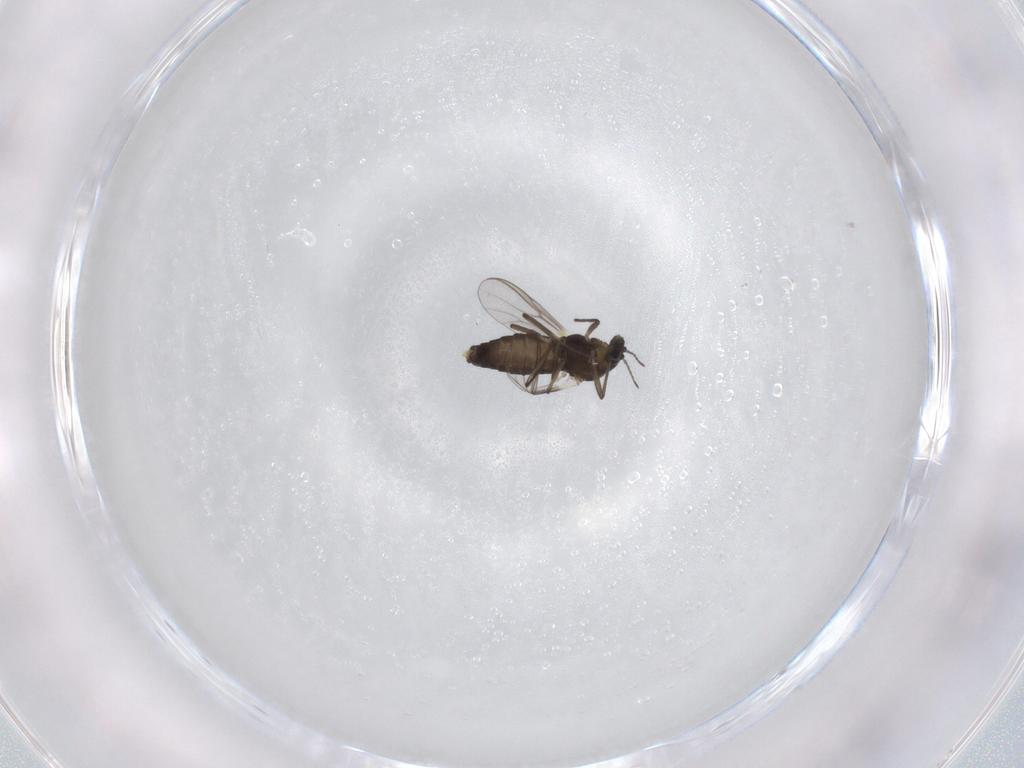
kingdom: Animalia
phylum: Arthropoda
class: Insecta
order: Diptera
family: Chironomidae
